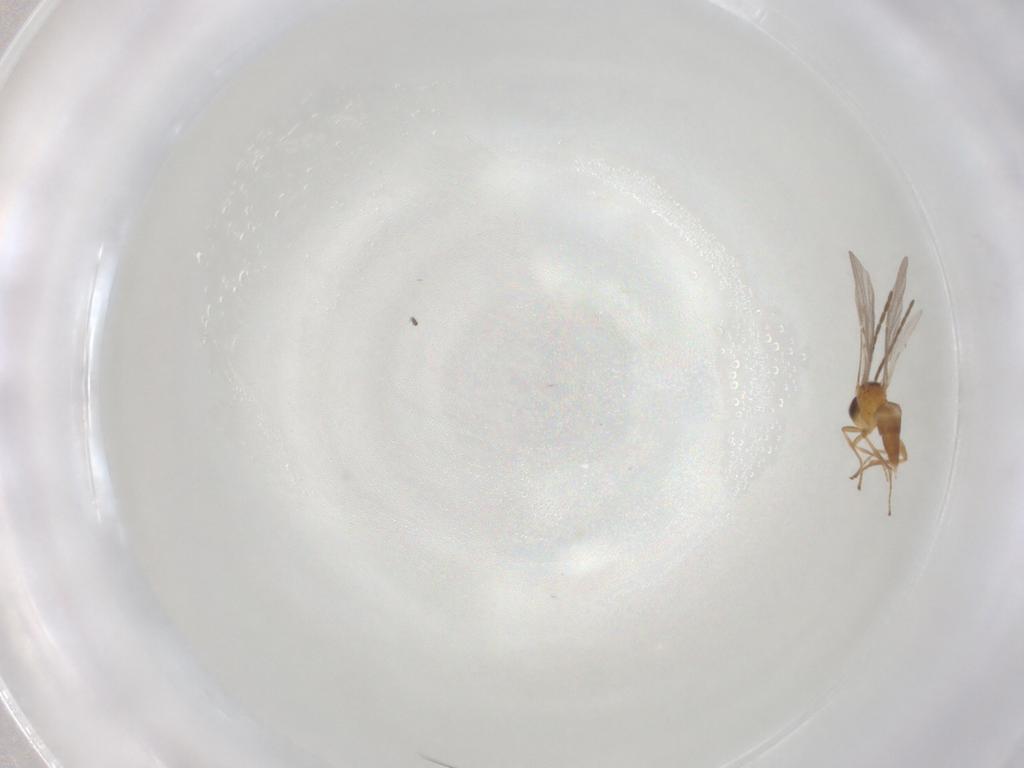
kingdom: Animalia
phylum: Arthropoda
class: Insecta
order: Hymenoptera
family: Braconidae
